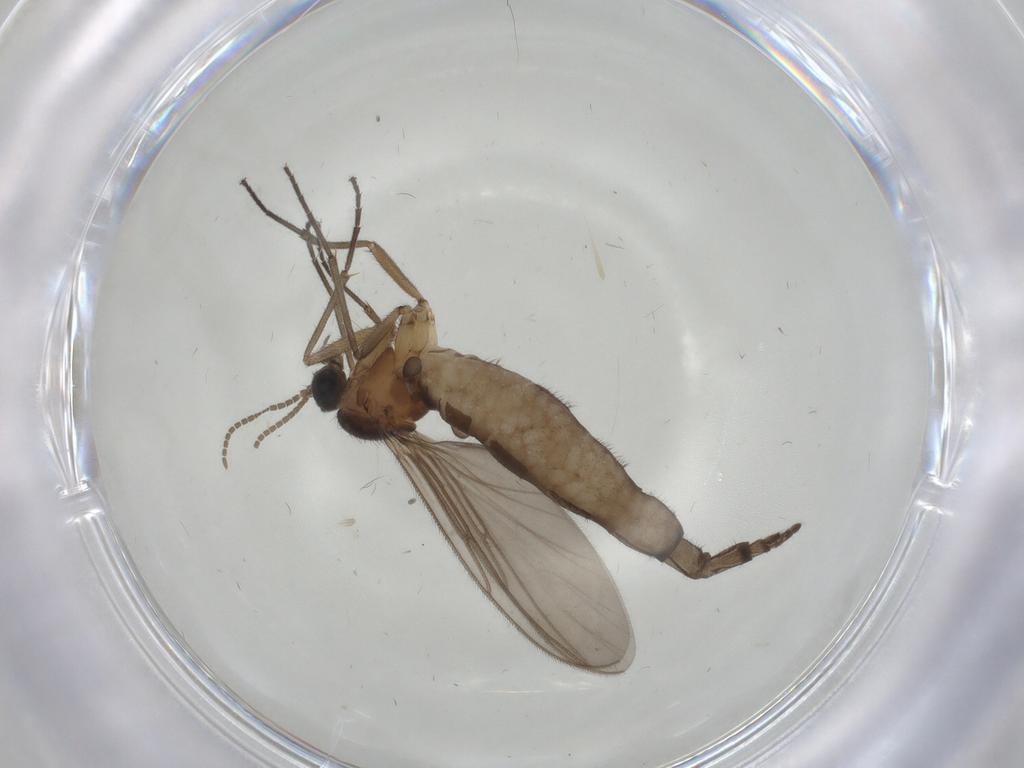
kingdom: Animalia
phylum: Arthropoda
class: Insecta
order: Diptera
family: Dolichopodidae
